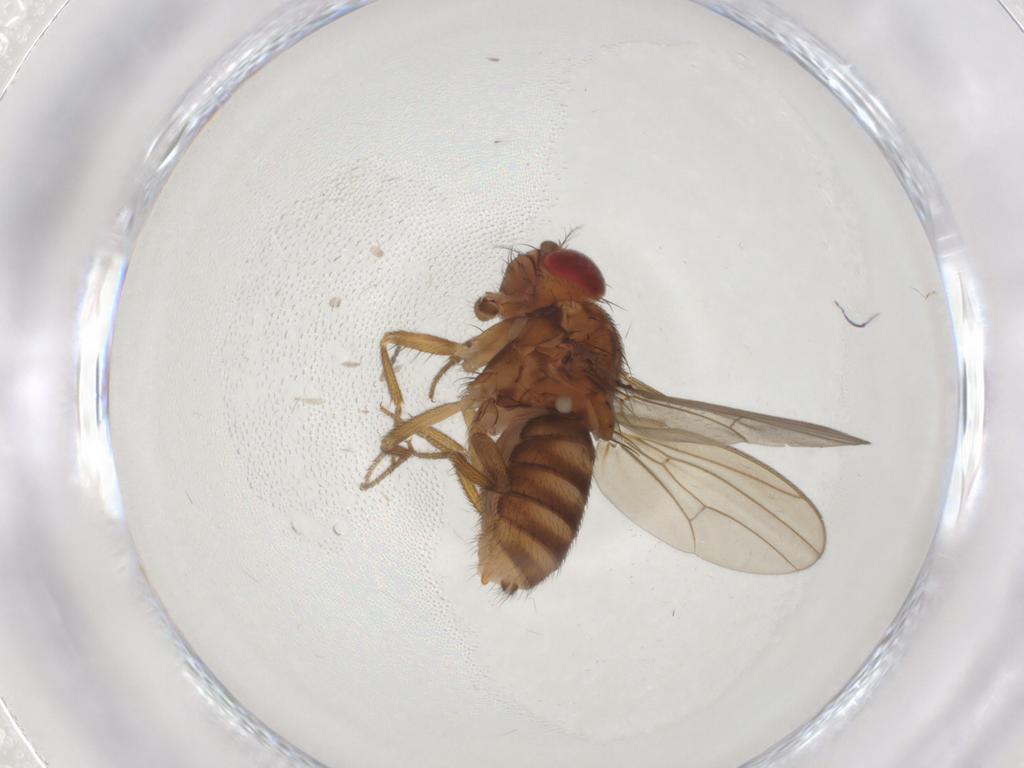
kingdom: Animalia
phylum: Arthropoda
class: Insecta
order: Diptera
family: Drosophilidae
